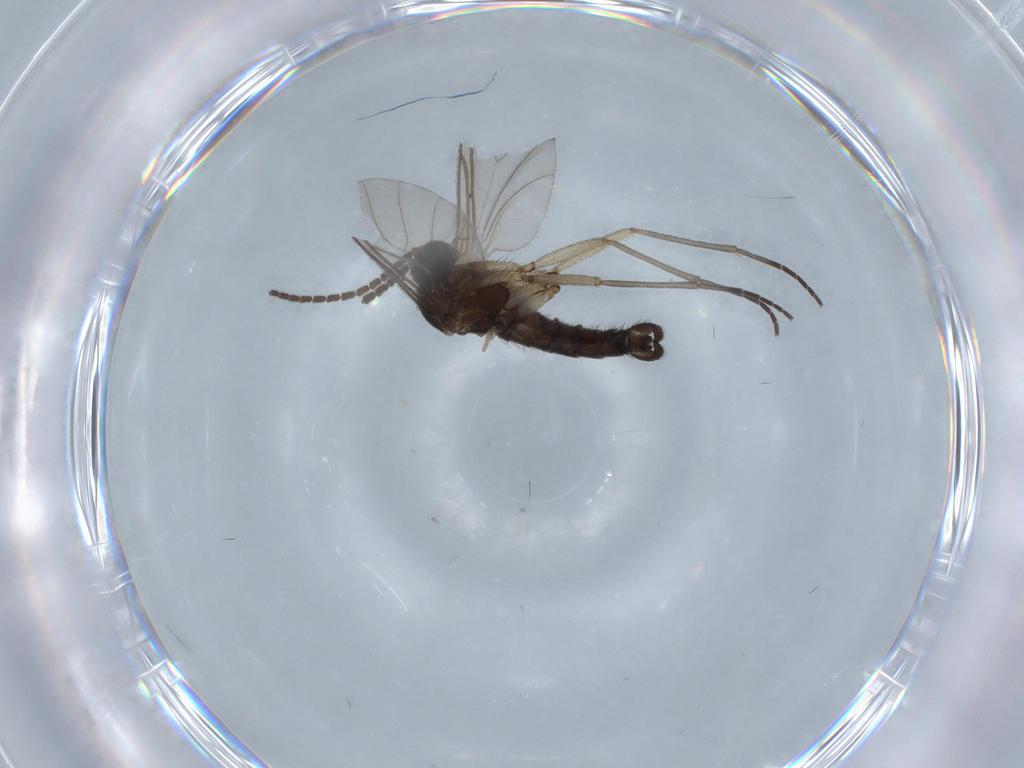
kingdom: Animalia
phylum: Arthropoda
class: Insecta
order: Diptera
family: Sciaridae
